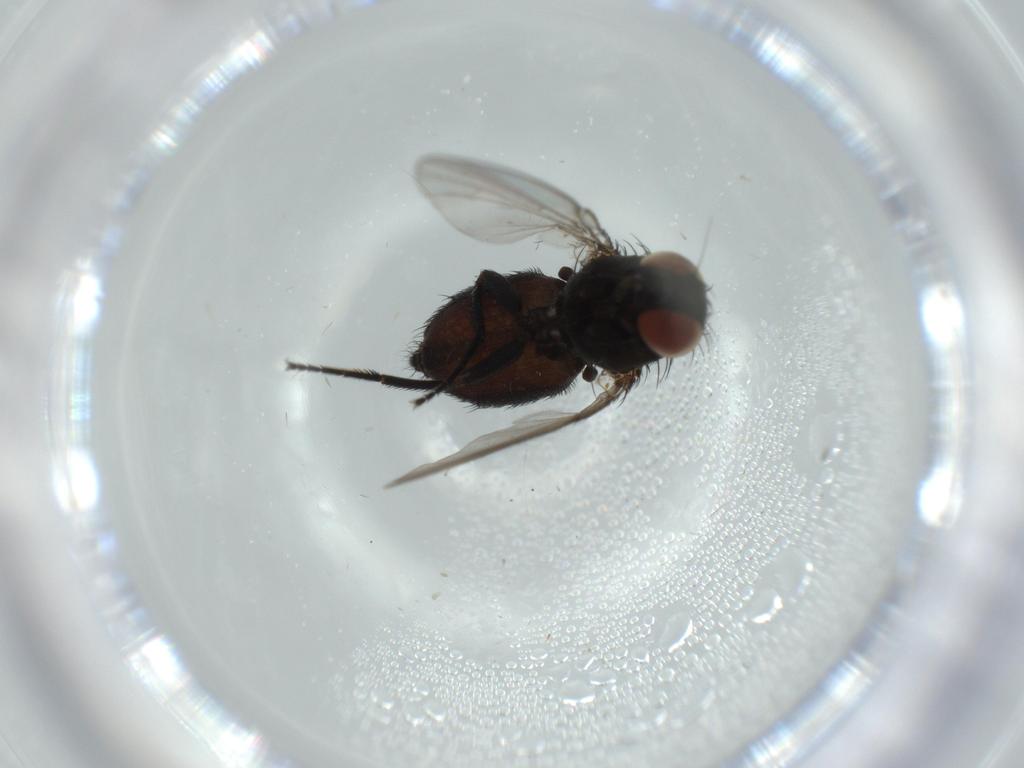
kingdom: Animalia
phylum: Arthropoda
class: Insecta
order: Diptera
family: Milichiidae
